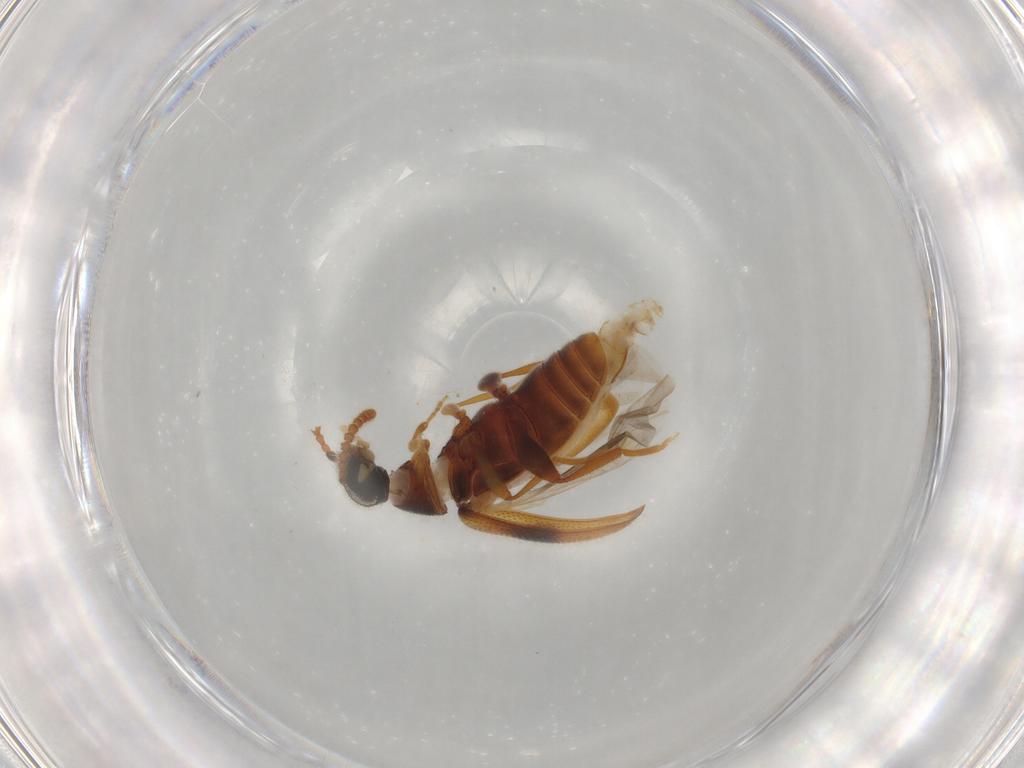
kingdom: Animalia
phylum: Arthropoda
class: Insecta
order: Coleoptera
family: Aderidae
